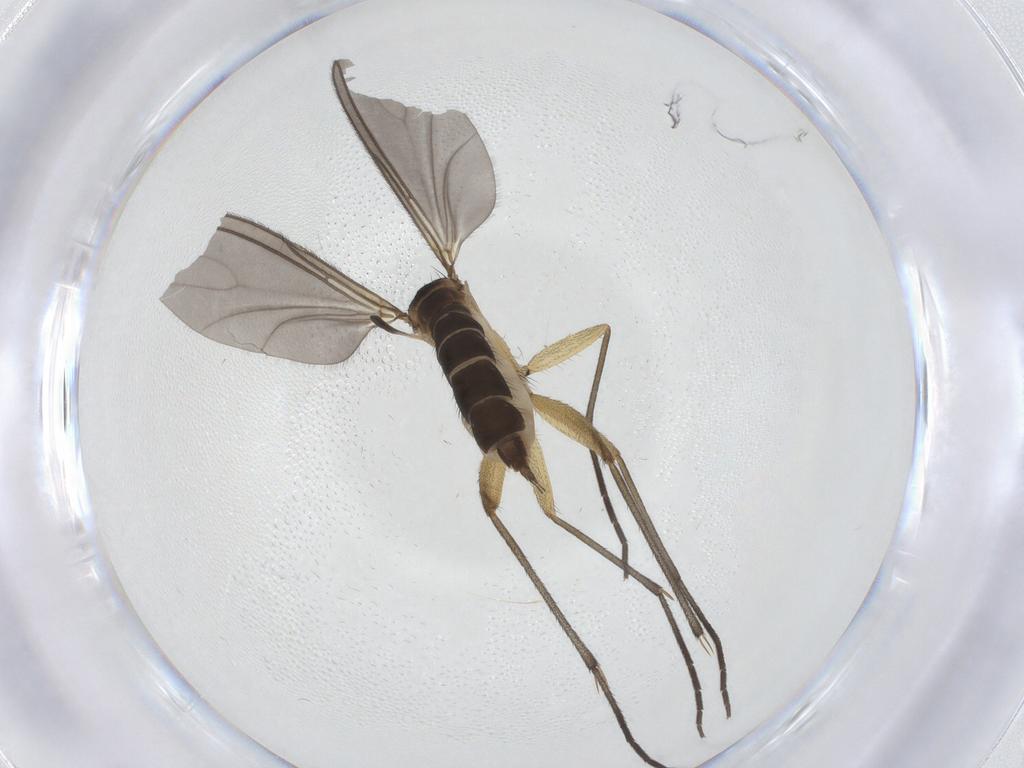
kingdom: Animalia
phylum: Arthropoda
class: Insecta
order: Diptera
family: Sciaridae
